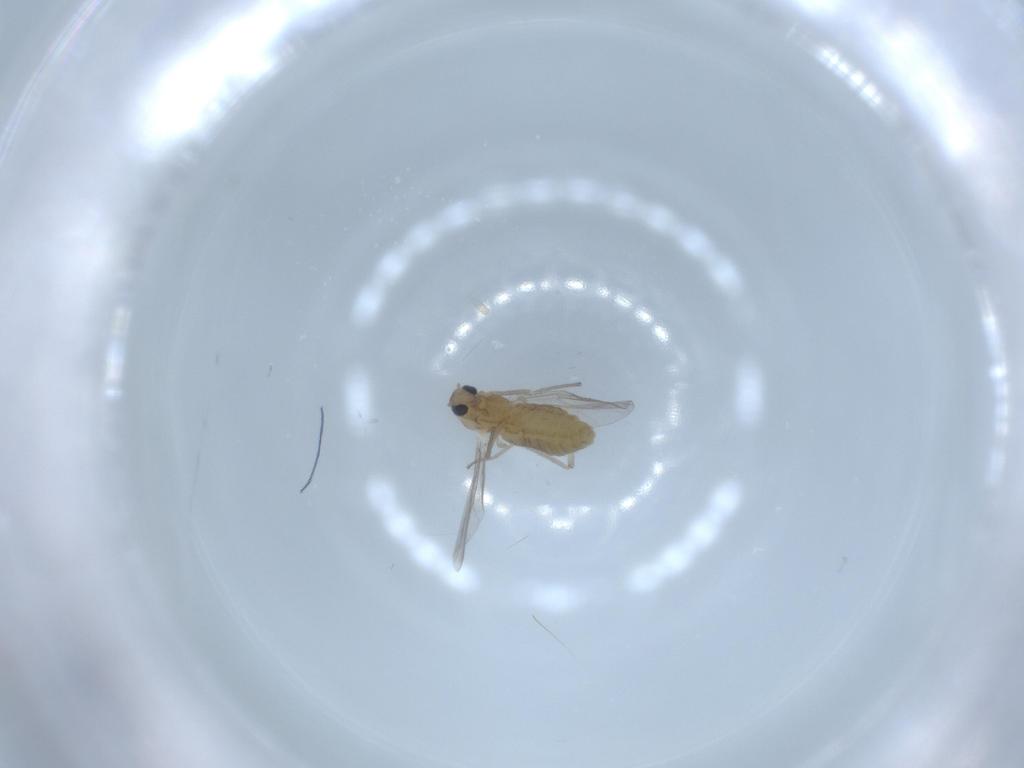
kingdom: Animalia
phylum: Arthropoda
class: Insecta
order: Diptera
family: Chironomidae
